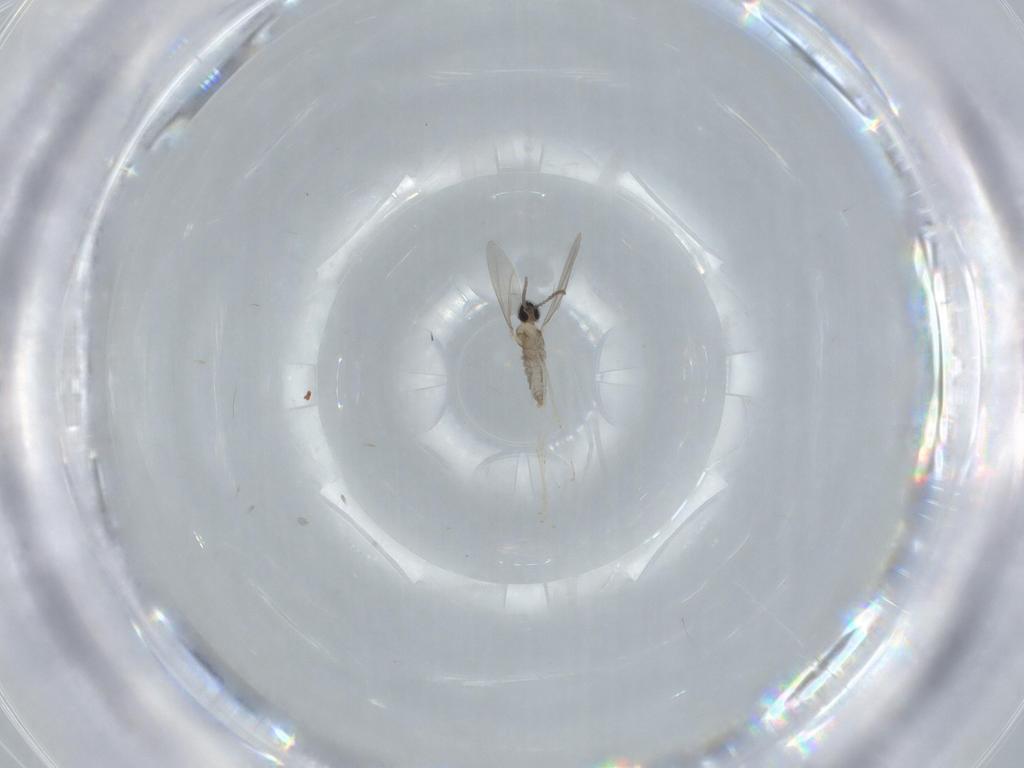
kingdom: Animalia
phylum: Arthropoda
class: Insecta
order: Diptera
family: Cecidomyiidae
